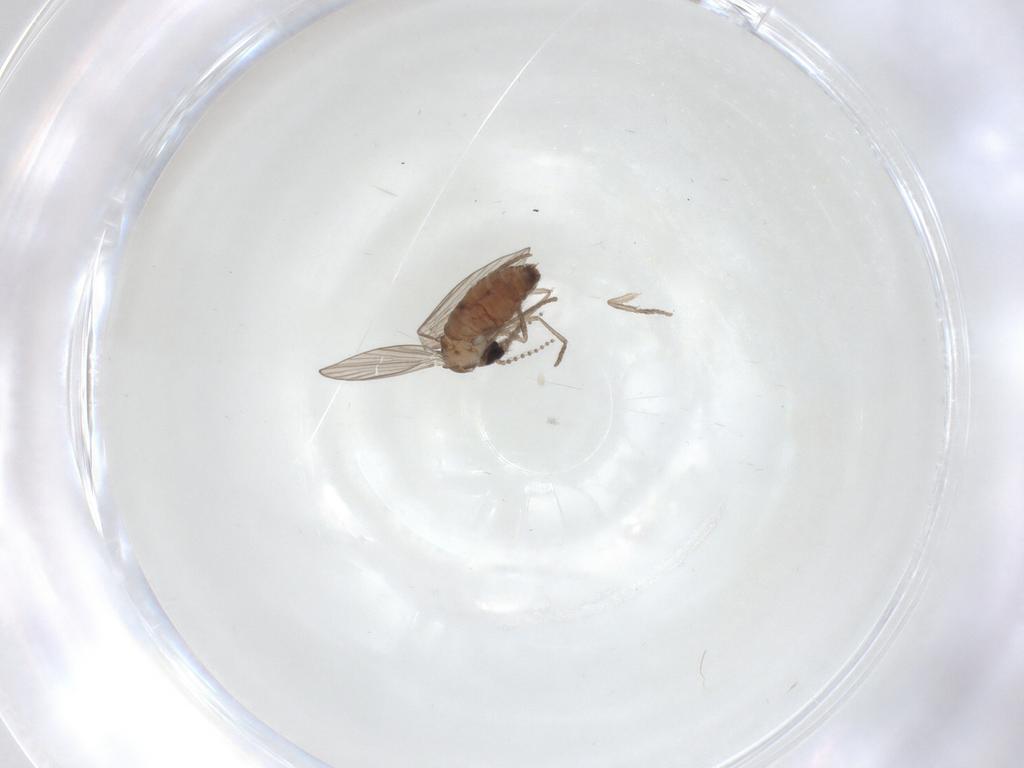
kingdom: Animalia
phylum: Arthropoda
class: Insecta
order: Diptera
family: Psychodidae
